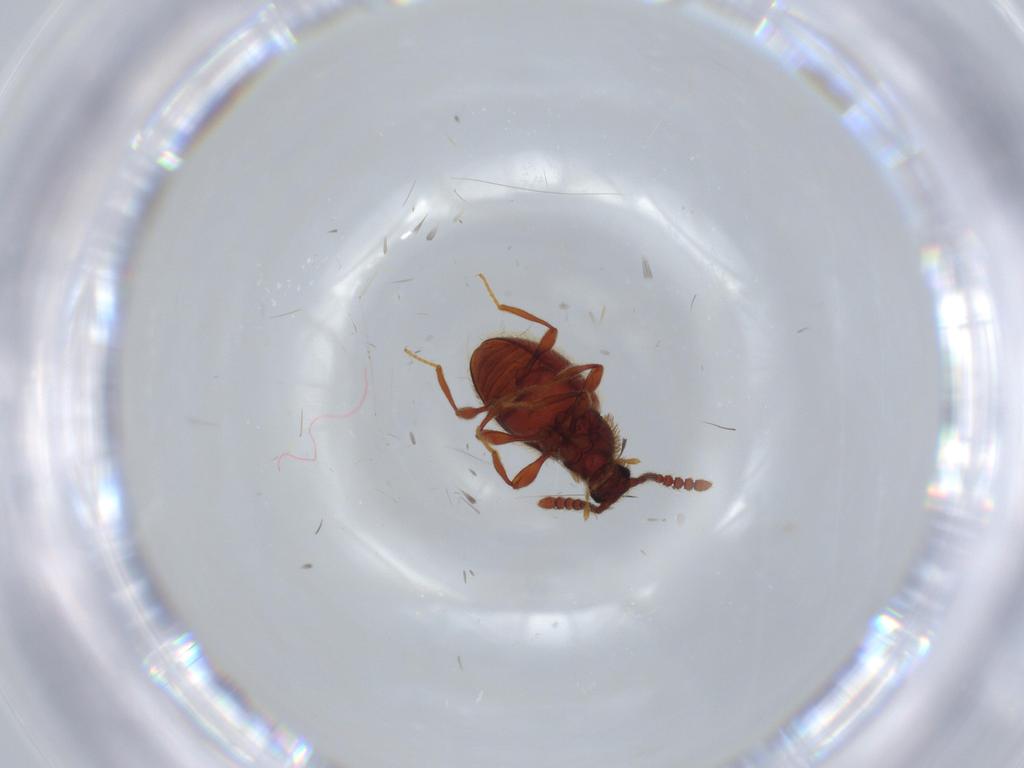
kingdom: Animalia
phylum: Arthropoda
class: Insecta
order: Coleoptera
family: Staphylinidae
